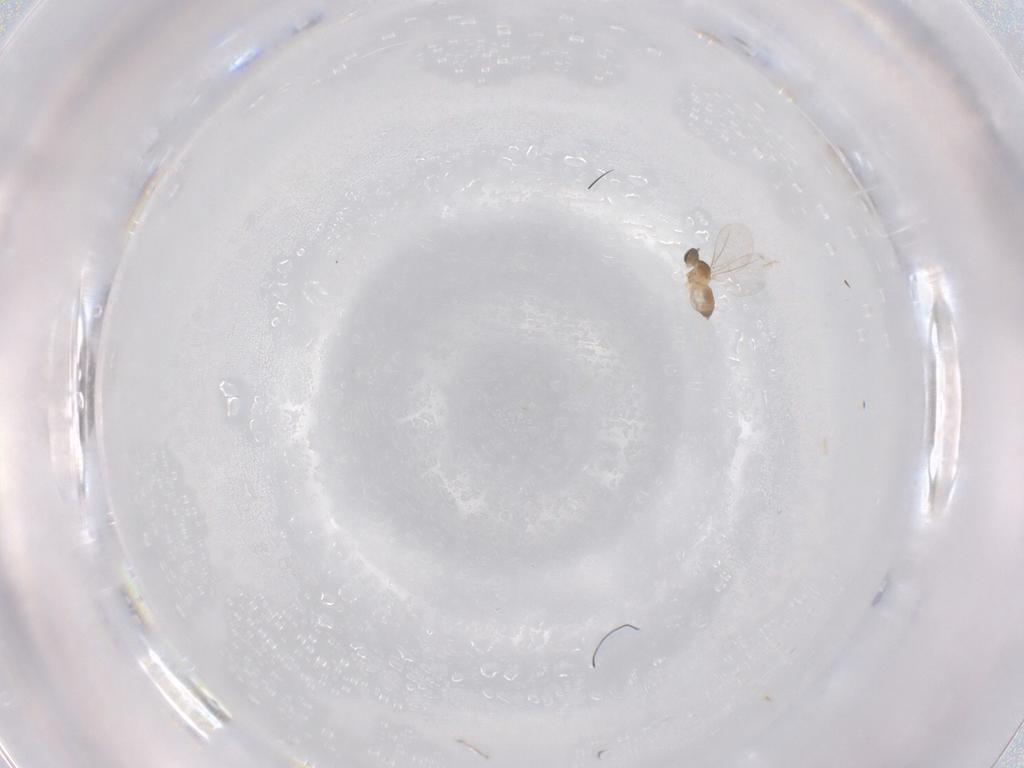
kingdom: Animalia
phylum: Arthropoda
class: Insecta
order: Diptera
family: Cecidomyiidae
